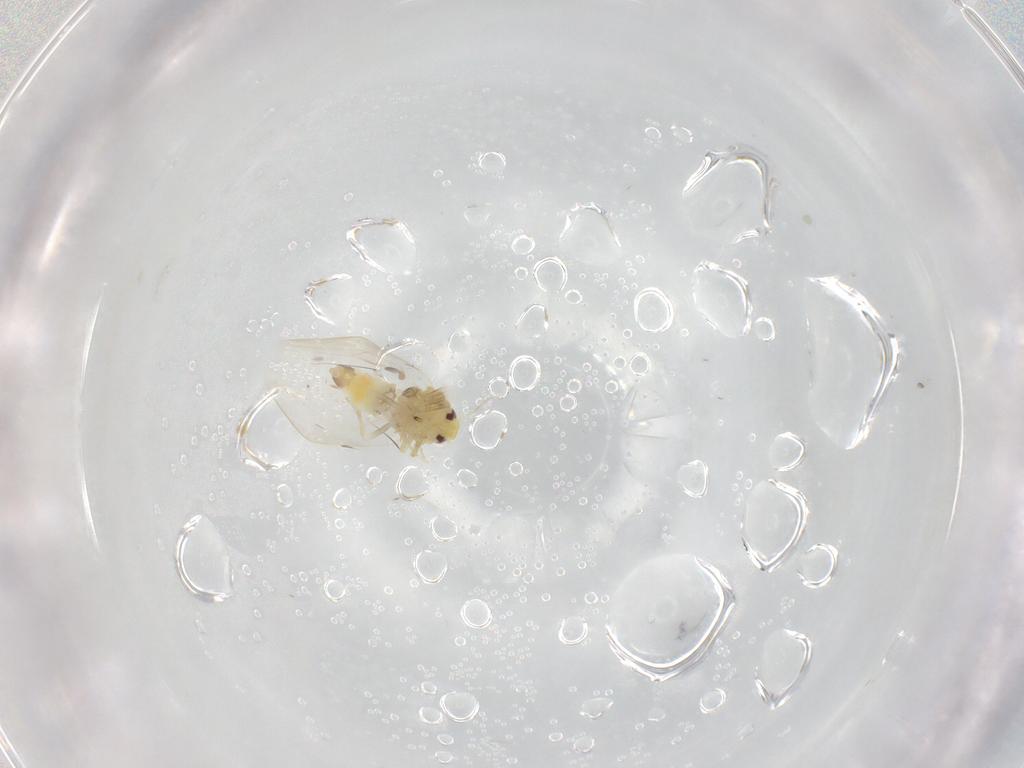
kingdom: Animalia
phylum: Arthropoda
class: Insecta
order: Hemiptera
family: Aleyrodidae
